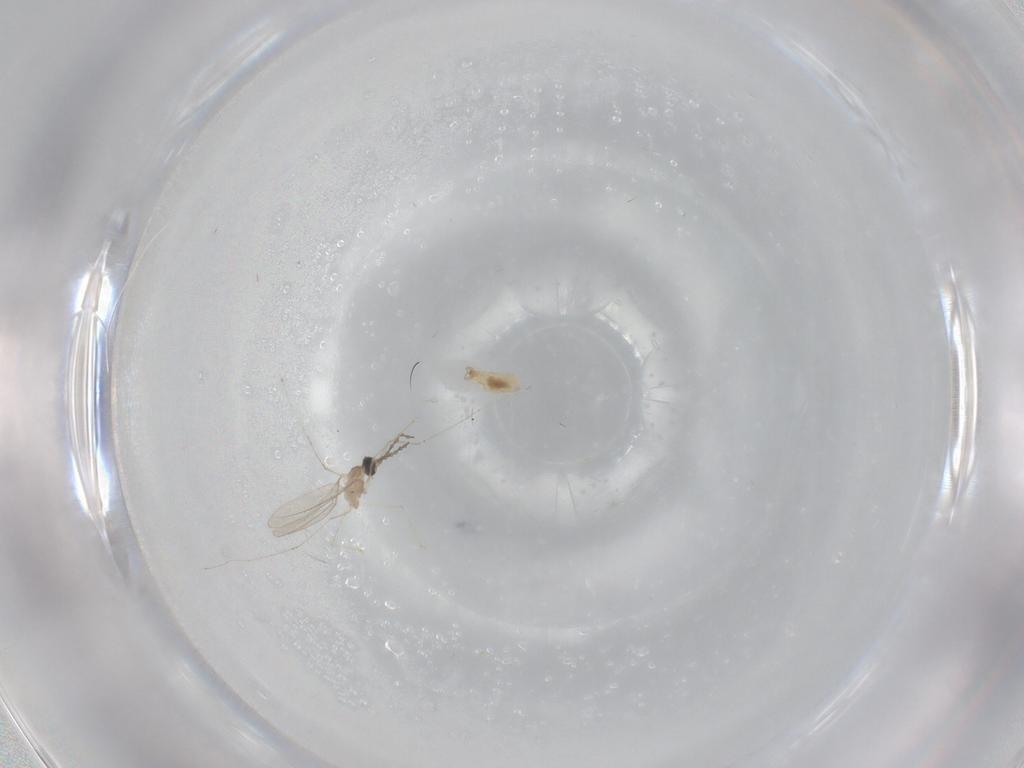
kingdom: Animalia
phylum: Arthropoda
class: Insecta
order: Diptera
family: Cecidomyiidae
